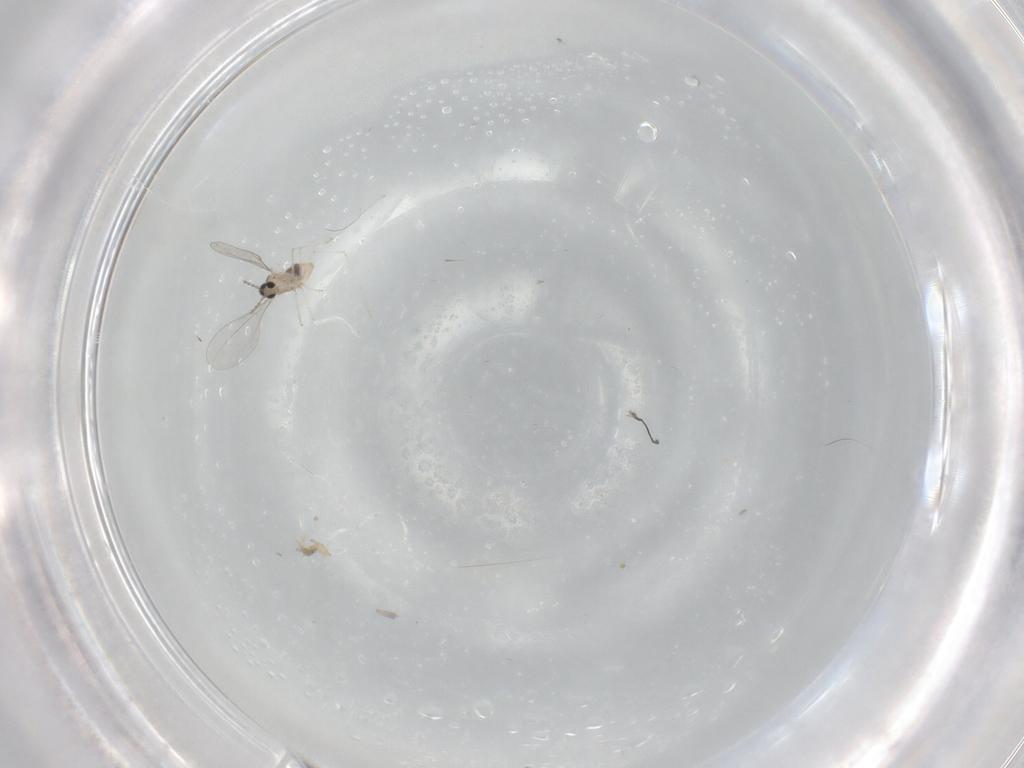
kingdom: Animalia
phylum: Arthropoda
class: Insecta
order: Diptera
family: Cecidomyiidae
